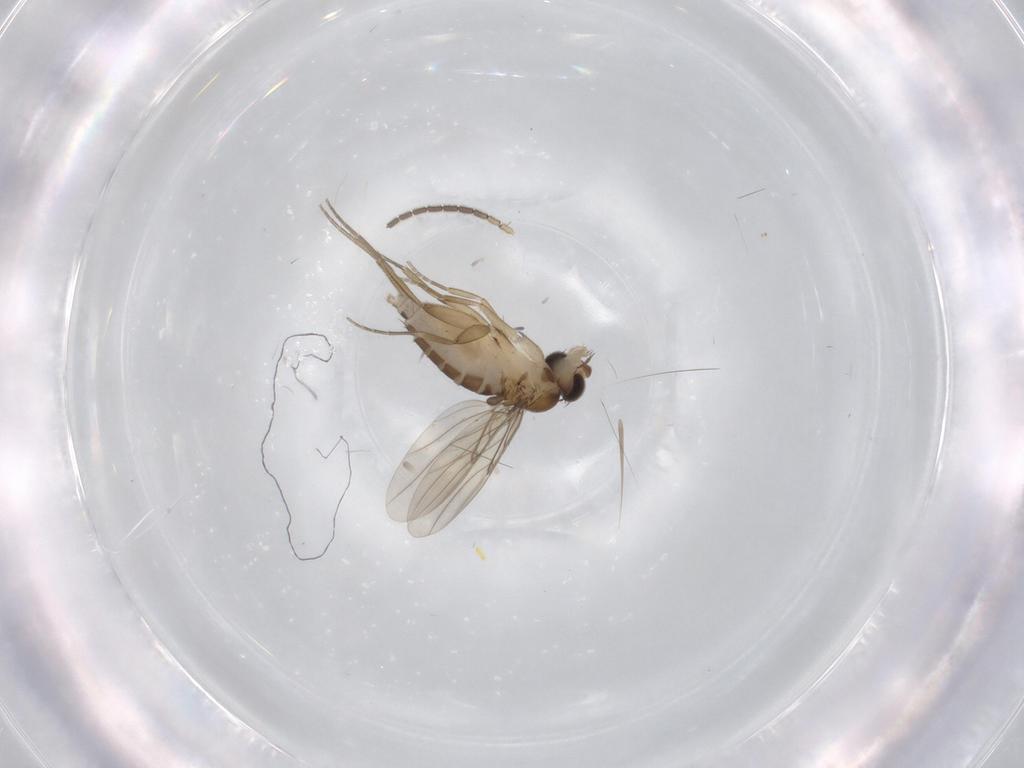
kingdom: Animalia
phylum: Arthropoda
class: Insecta
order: Diptera
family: Sciaridae
